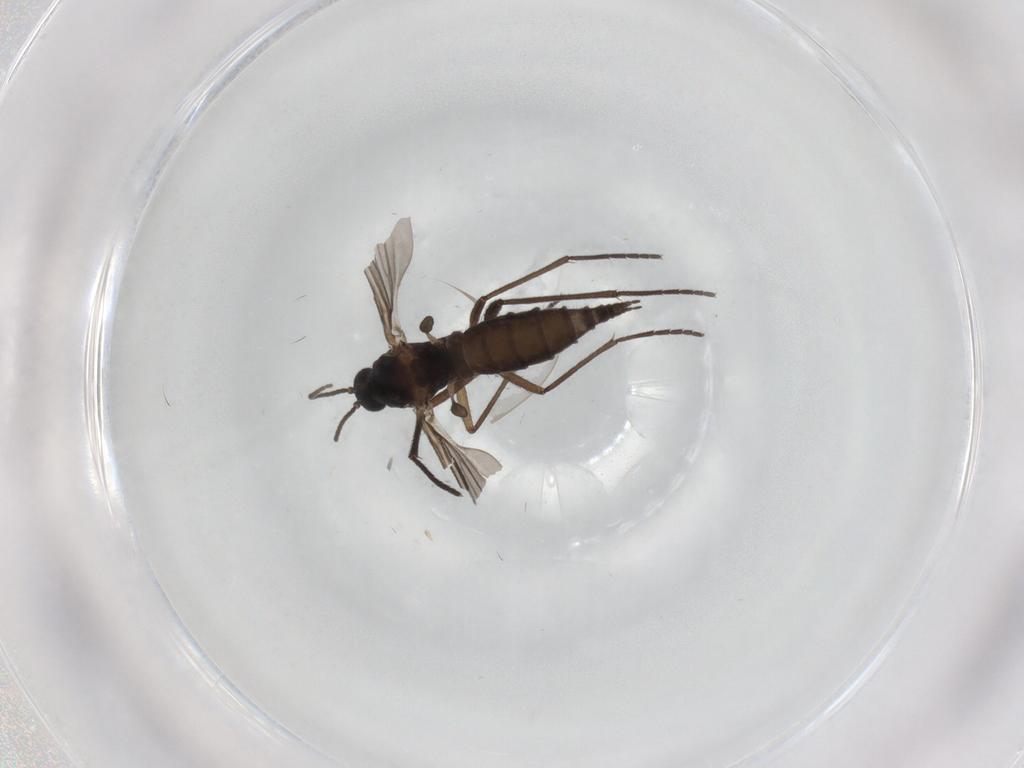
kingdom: Animalia
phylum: Arthropoda
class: Insecta
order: Diptera
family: Sciaridae
